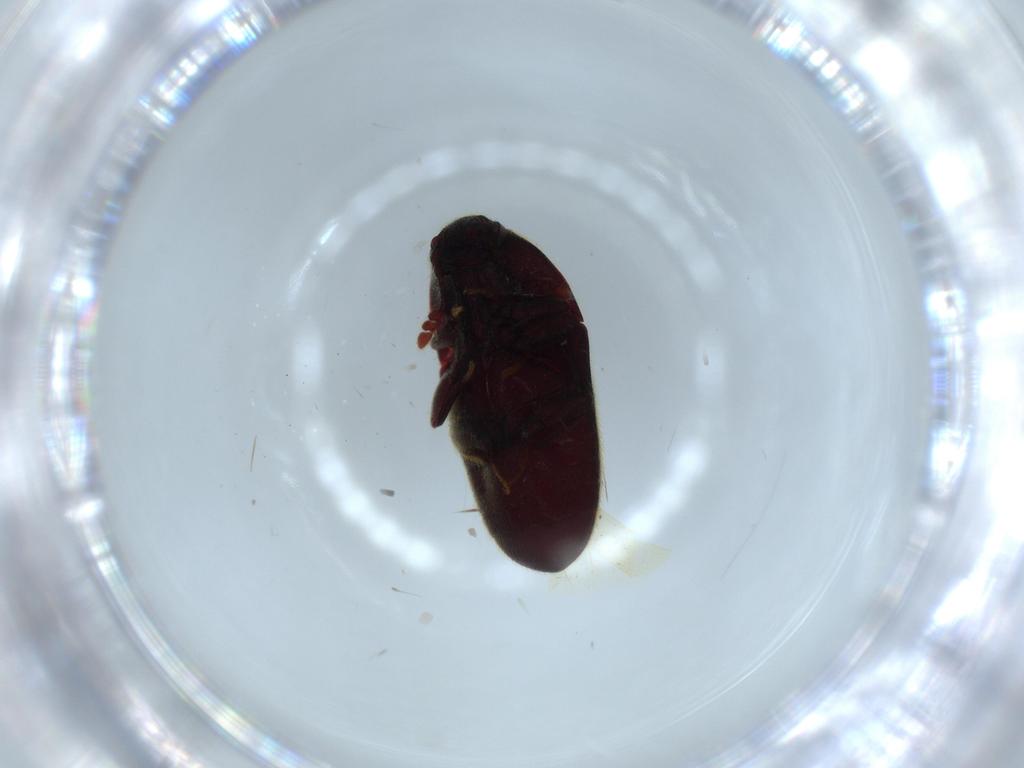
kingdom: Animalia
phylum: Arthropoda
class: Insecta
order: Coleoptera
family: Throscidae
